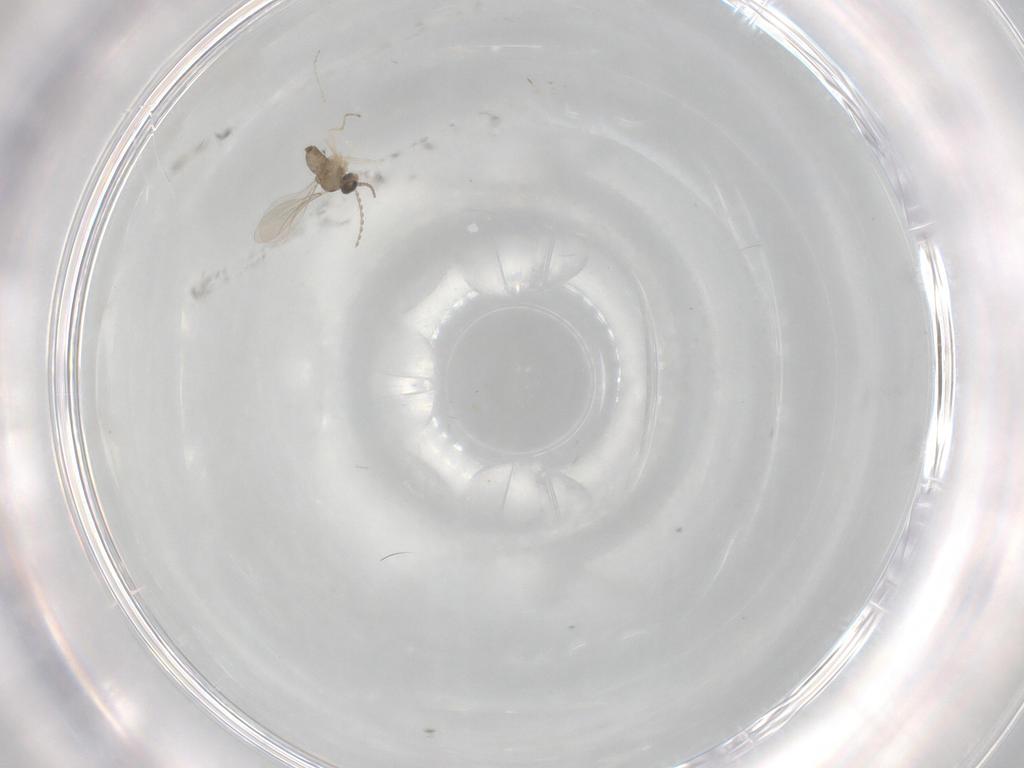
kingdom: Animalia
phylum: Arthropoda
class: Insecta
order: Diptera
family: Cecidomyiidae
